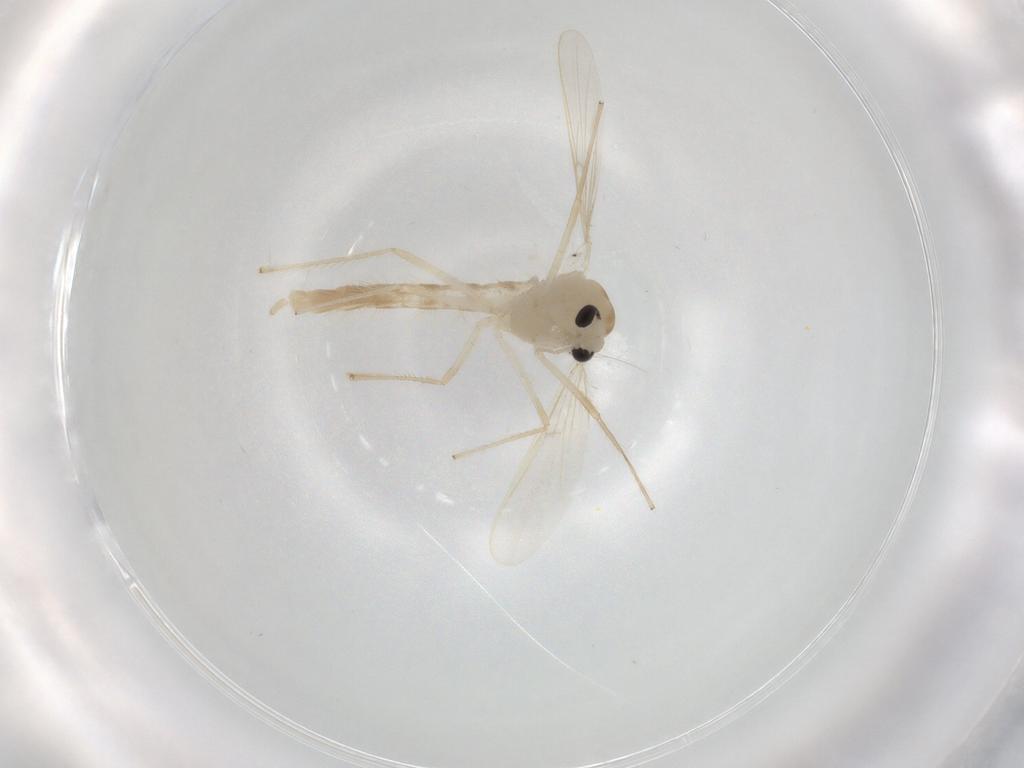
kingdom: Animalia
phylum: Arthropoda
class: Insecta
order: Diptera
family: Chironomidae
